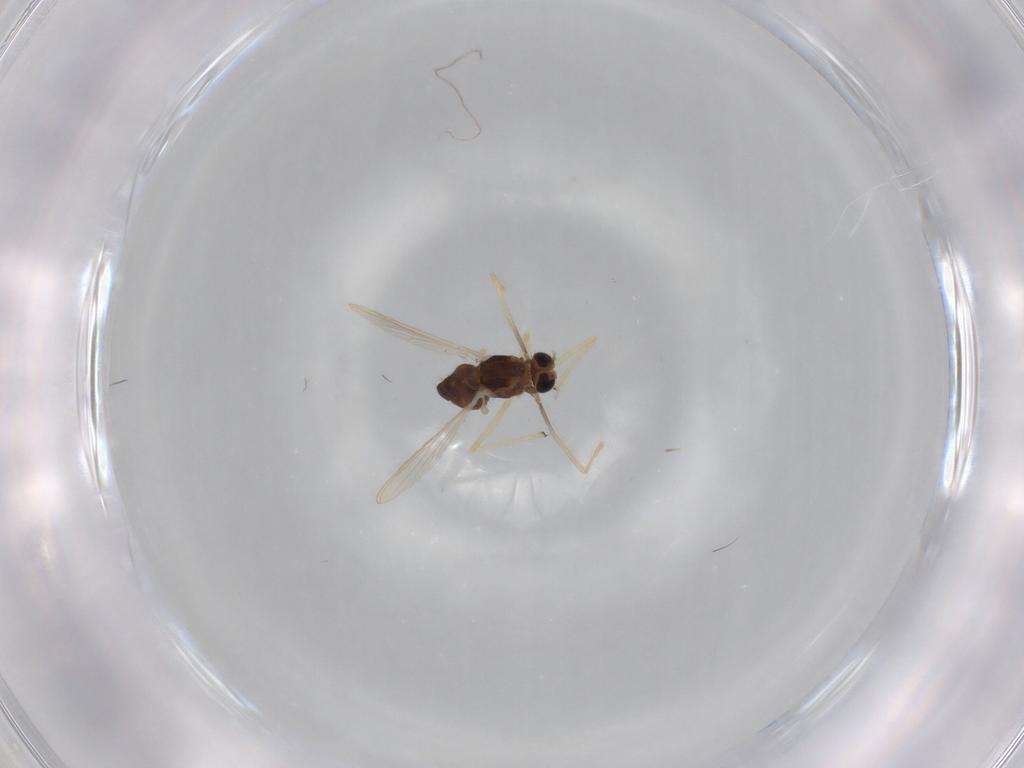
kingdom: Animalia
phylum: Arthropoda
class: Insecta
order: Diptera
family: Chironomidae
